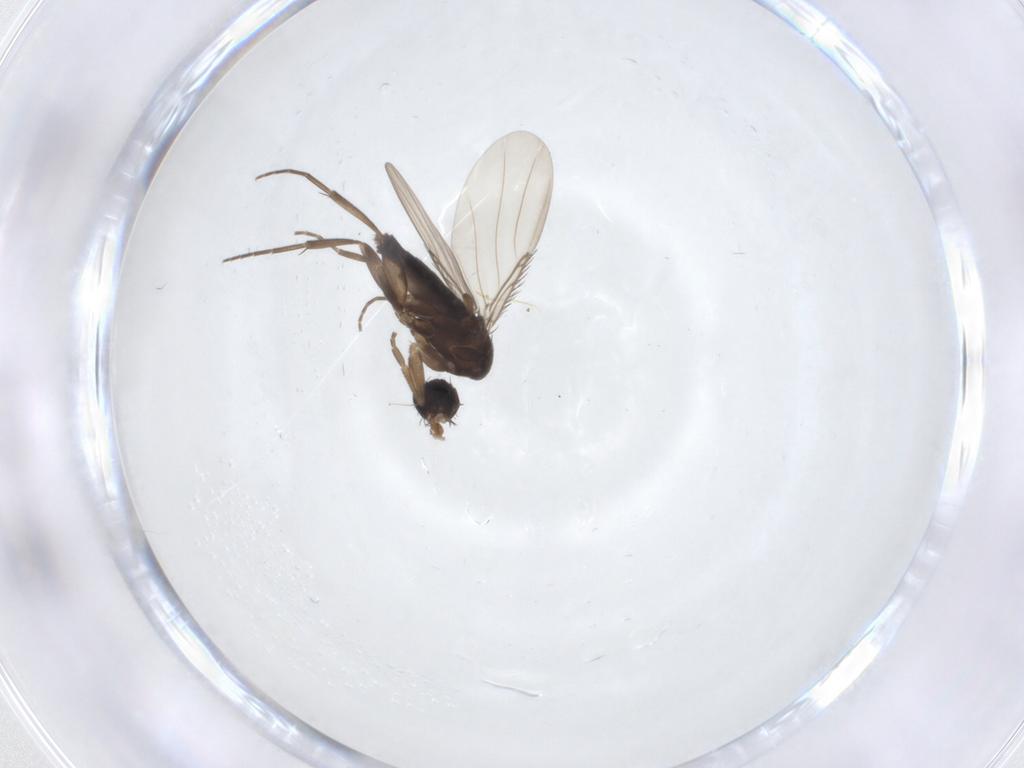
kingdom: Animalia
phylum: Arthropoda
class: Insecta
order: Diptera
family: Phoridae
